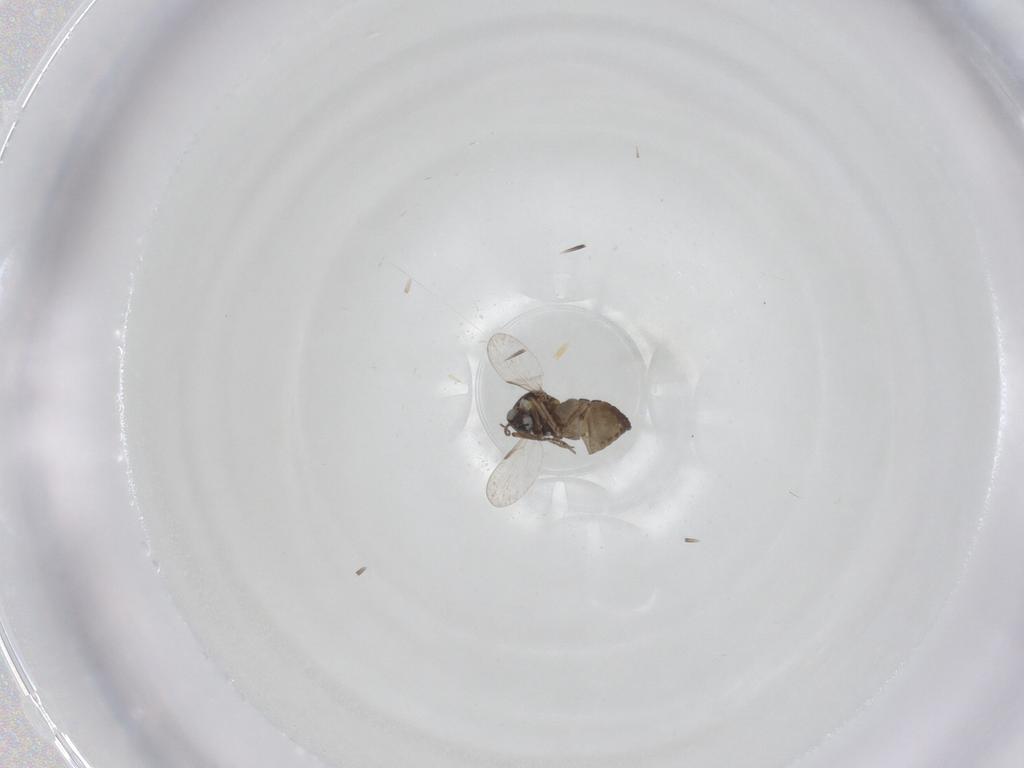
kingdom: Animalia
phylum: Arthropoda
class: Insecta
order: Diptera
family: Ceratopogonidae
